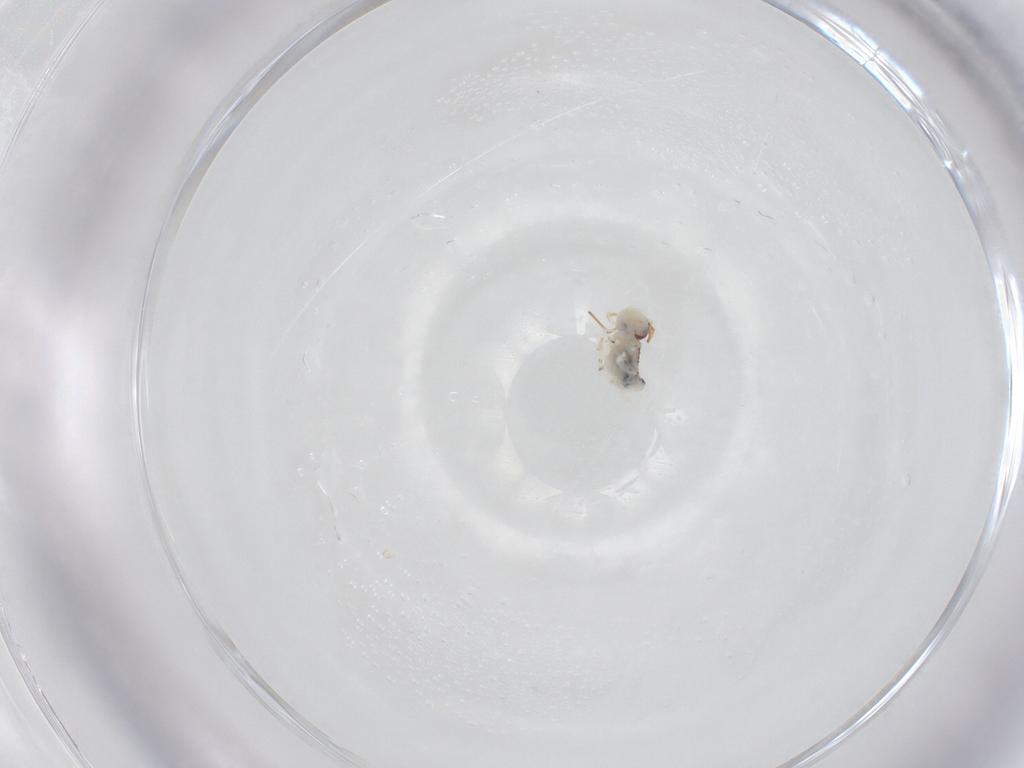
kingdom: Animalia
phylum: Arthropoda
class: Collembola
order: Symphypleona
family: Bourletiellidae
